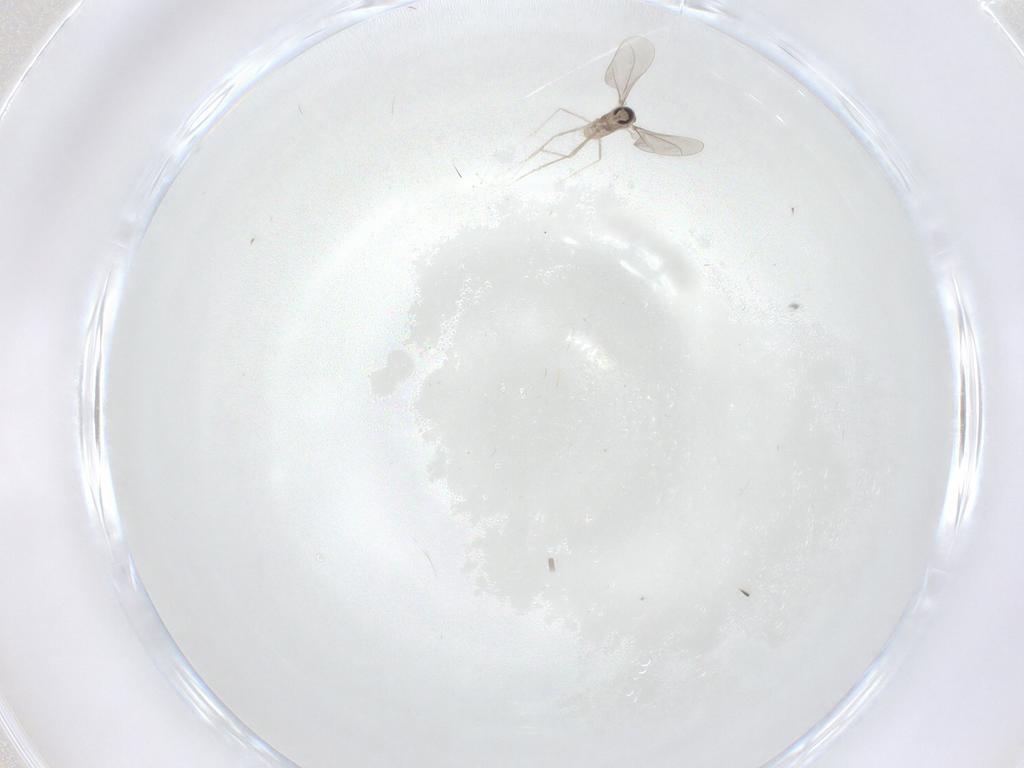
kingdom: Animalia
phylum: Arthropoda
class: Insecta
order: Diptera
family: Cecidomyiidae
